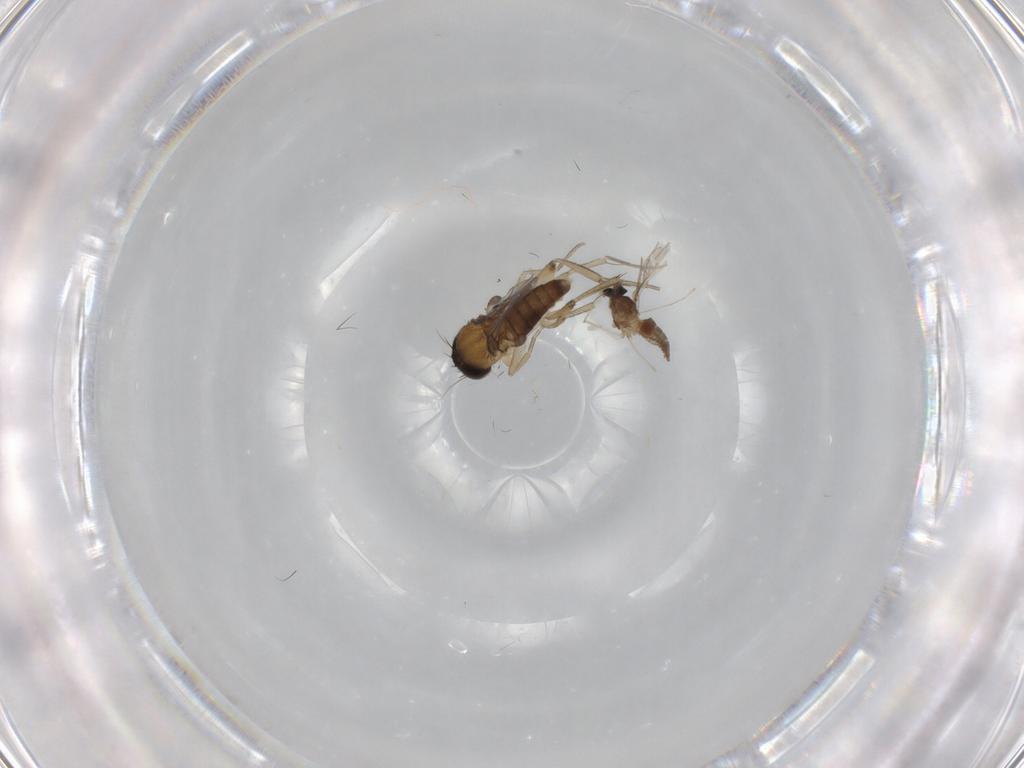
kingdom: Animalia
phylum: Arthropoda
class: Insecta
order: Diptera
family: Cecidomyiidae
